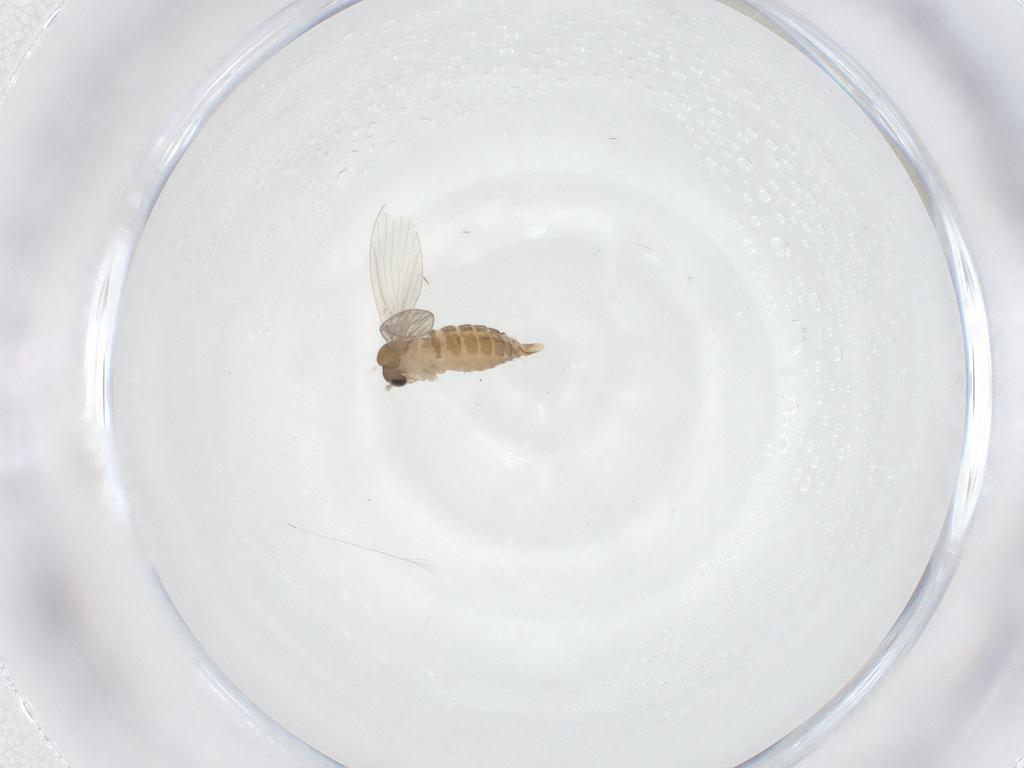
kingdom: Animalia
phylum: Arthropoda
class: Insecta
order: Diptera
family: Psychodidae
